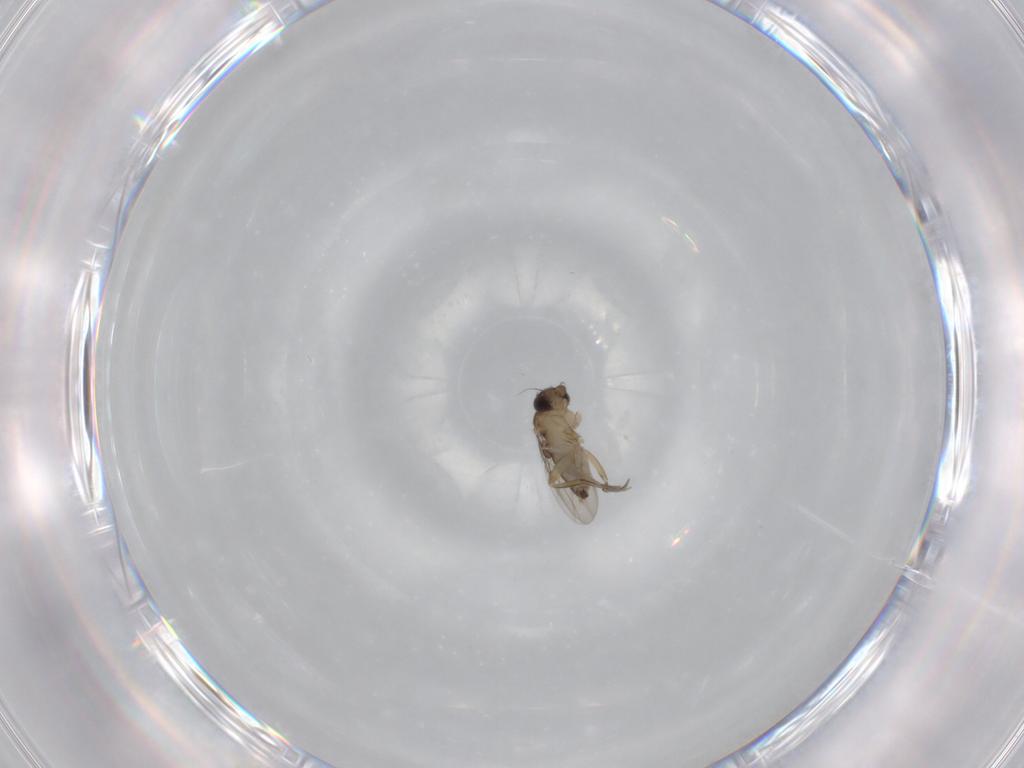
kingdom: Animalia
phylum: Arthropoda
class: Insecta
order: Diptera
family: Phoridae
